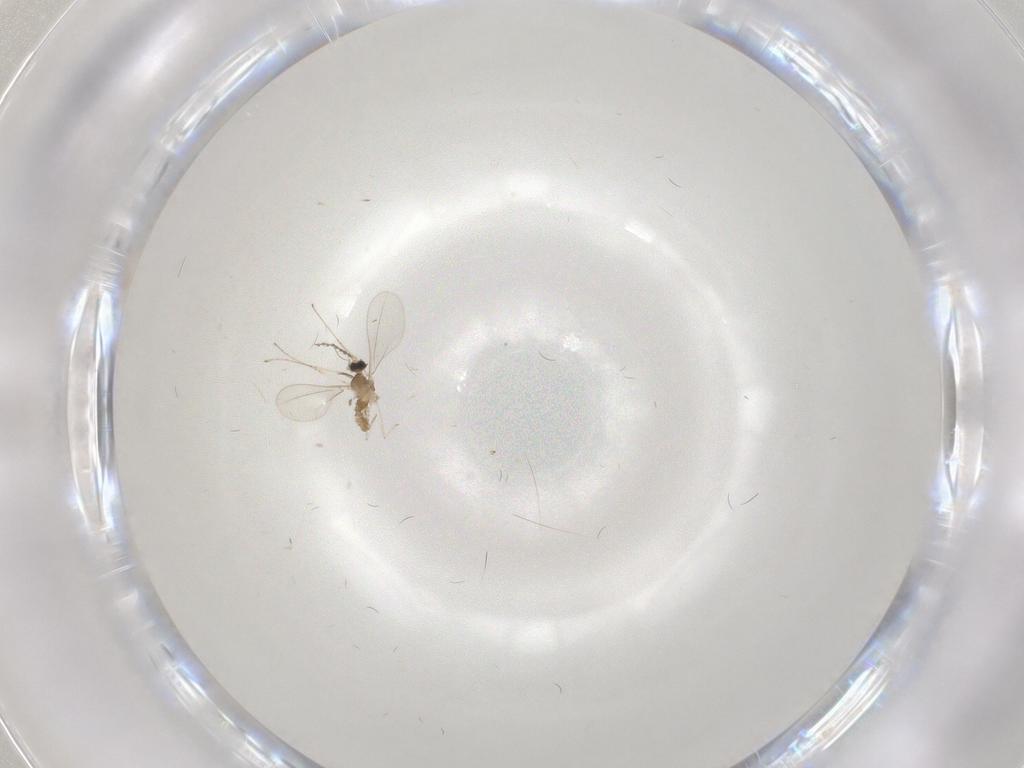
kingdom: Animalia
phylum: Arthropoda
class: Insecta
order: Diptera
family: Cecidomyiidae
